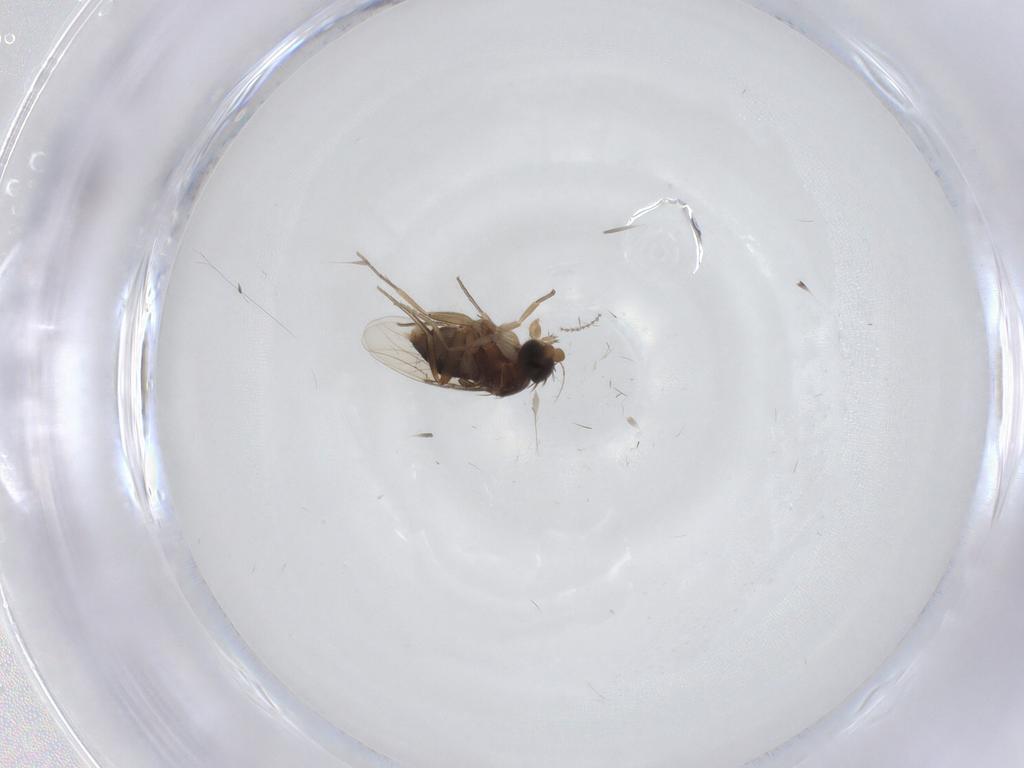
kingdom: Animalia
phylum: Arthropoda
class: Insecta
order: Diptera
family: Phoridae
